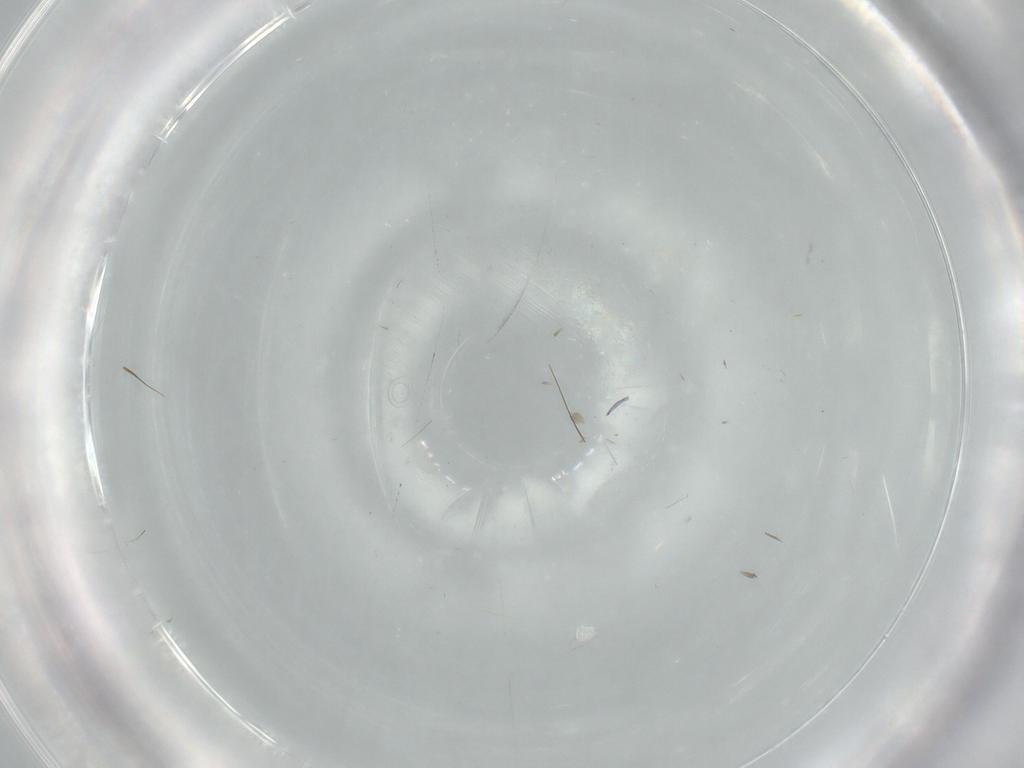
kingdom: Animalia
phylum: Arthropoda
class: Insecta
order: Psocodea
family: Psoquillidae
